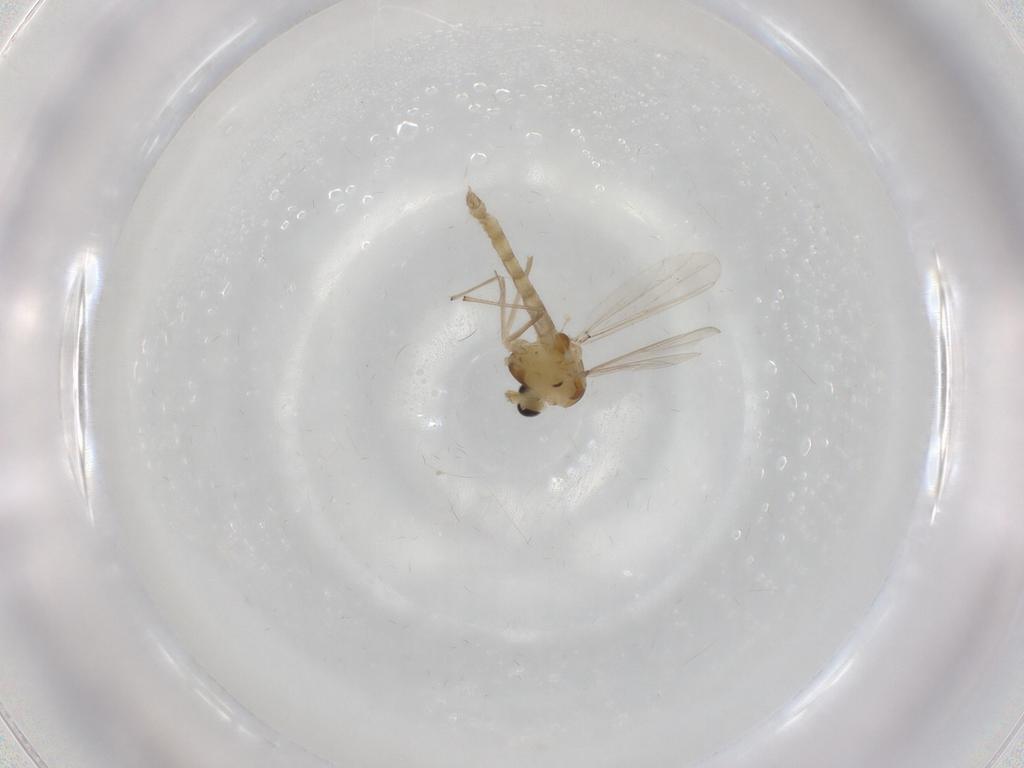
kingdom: Animalia
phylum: Arthropoda
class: Insecta
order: Diptera
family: Chironomidae
